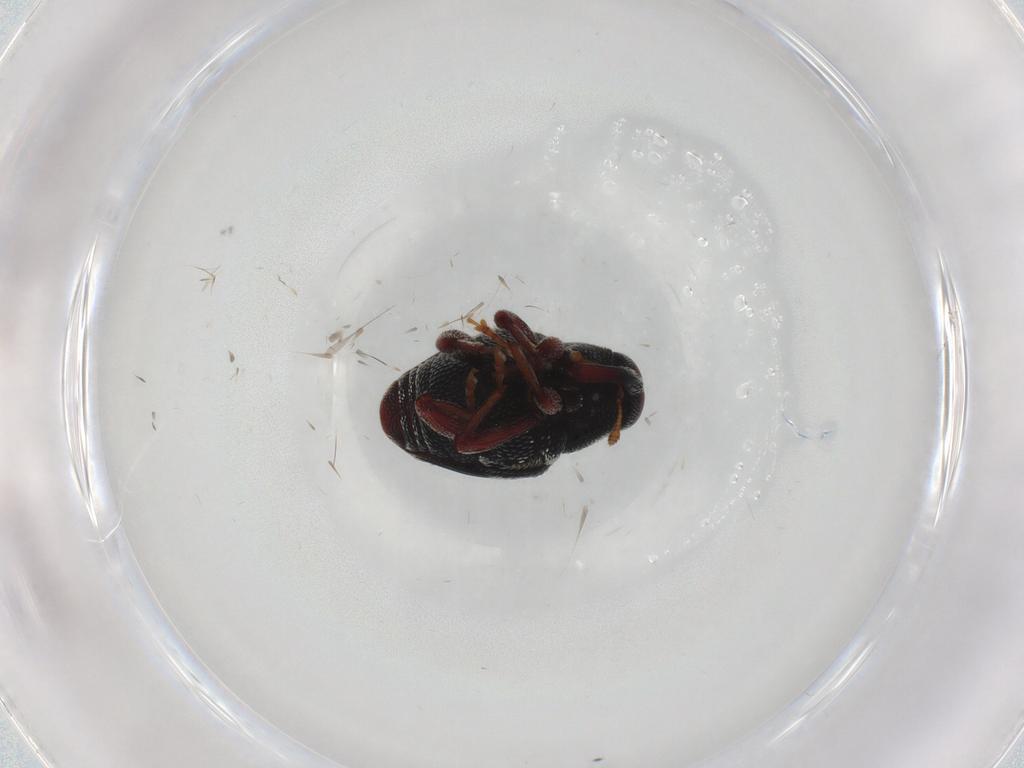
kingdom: Animalia
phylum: Arthropoda
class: Insecta
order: Coleoptera
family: Curculionidae
